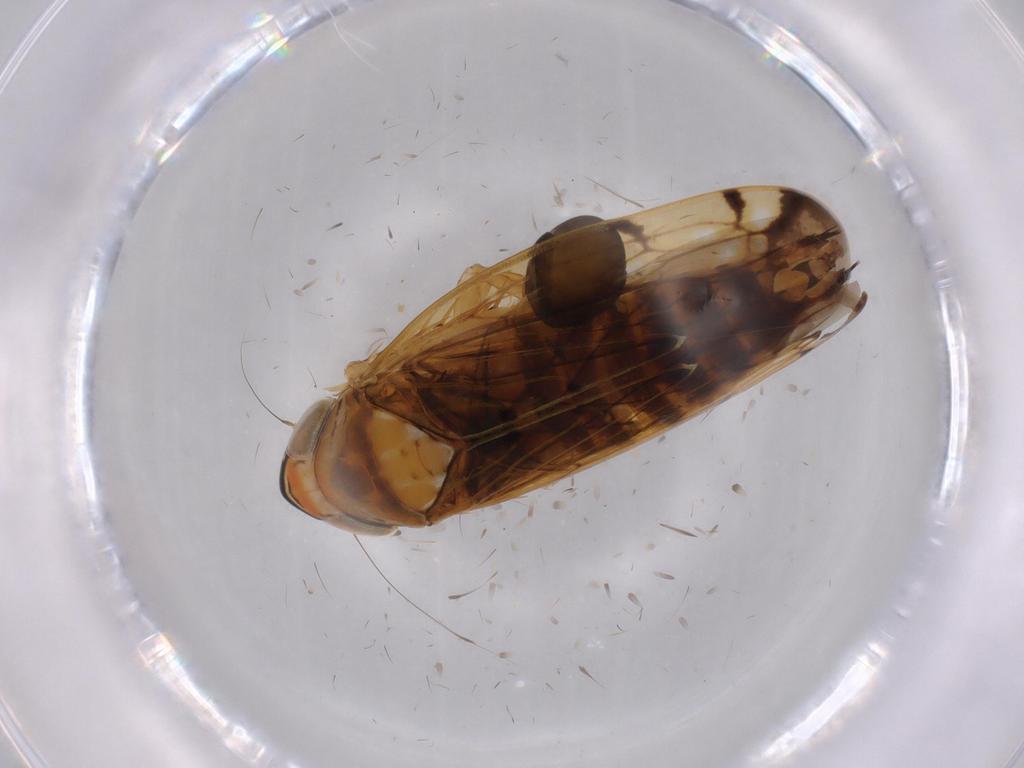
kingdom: Animalia
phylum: Arthropoda
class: Insecta
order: Hemiptera
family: Cicadellidae
